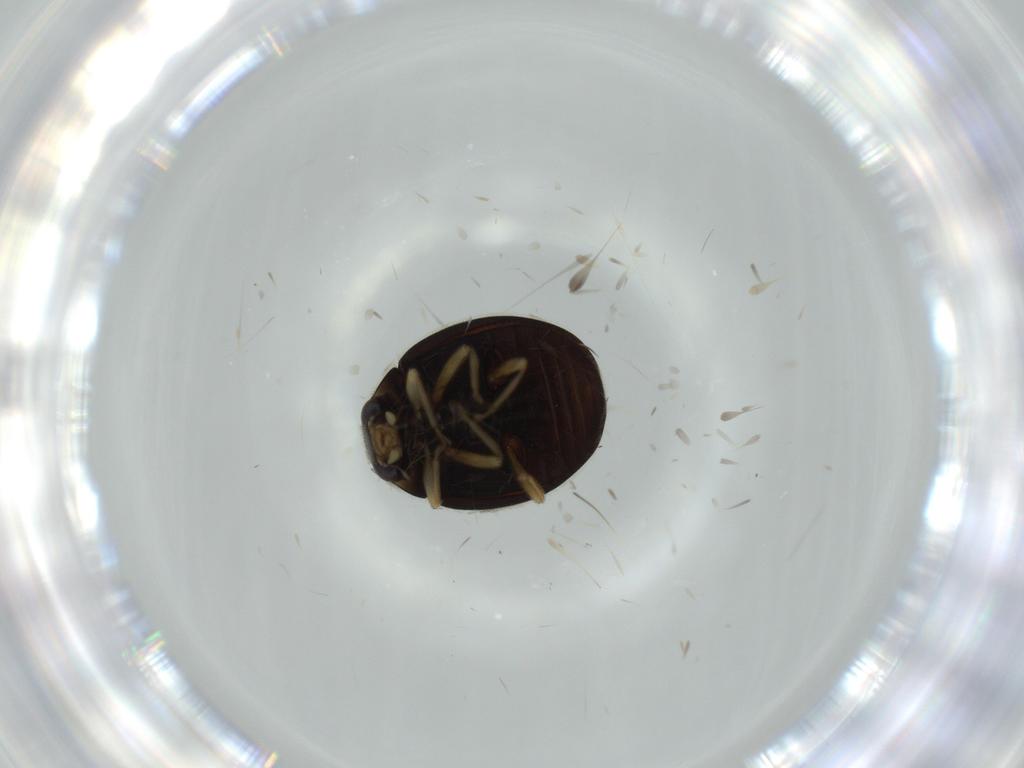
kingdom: Animalia
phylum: Arthropoda
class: Insecta
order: Coleoptera
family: Coccinellidae
